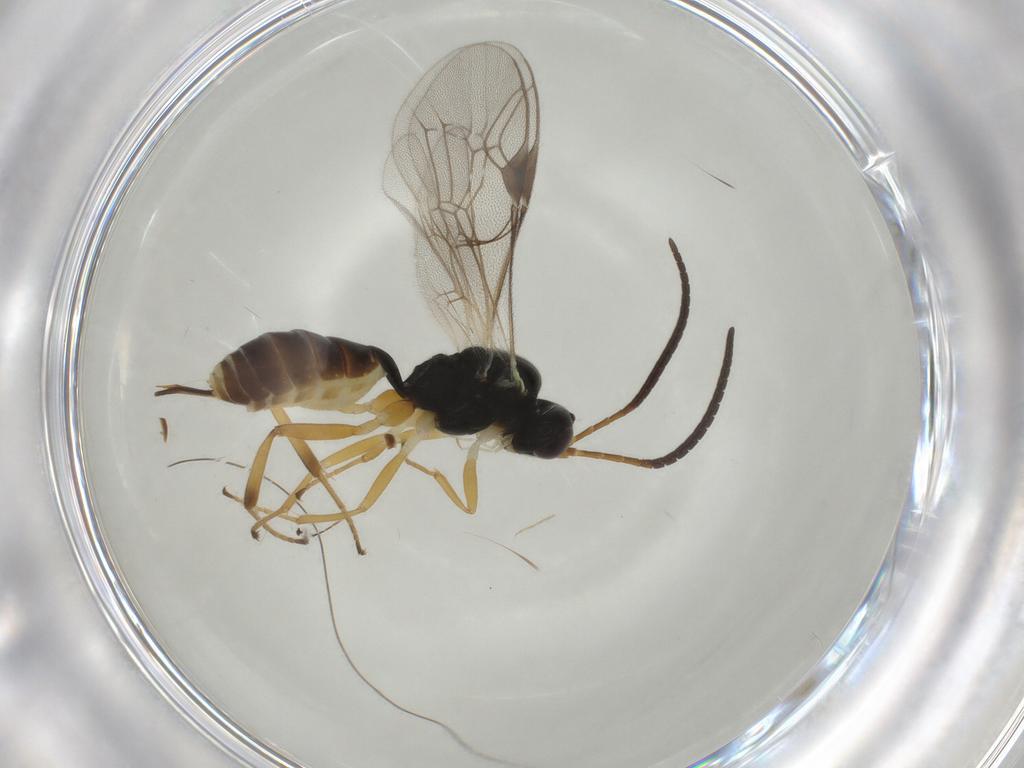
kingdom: Animalia
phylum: Arthropoda
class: Insecta
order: Hymenoptera
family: Ichneumonidae
